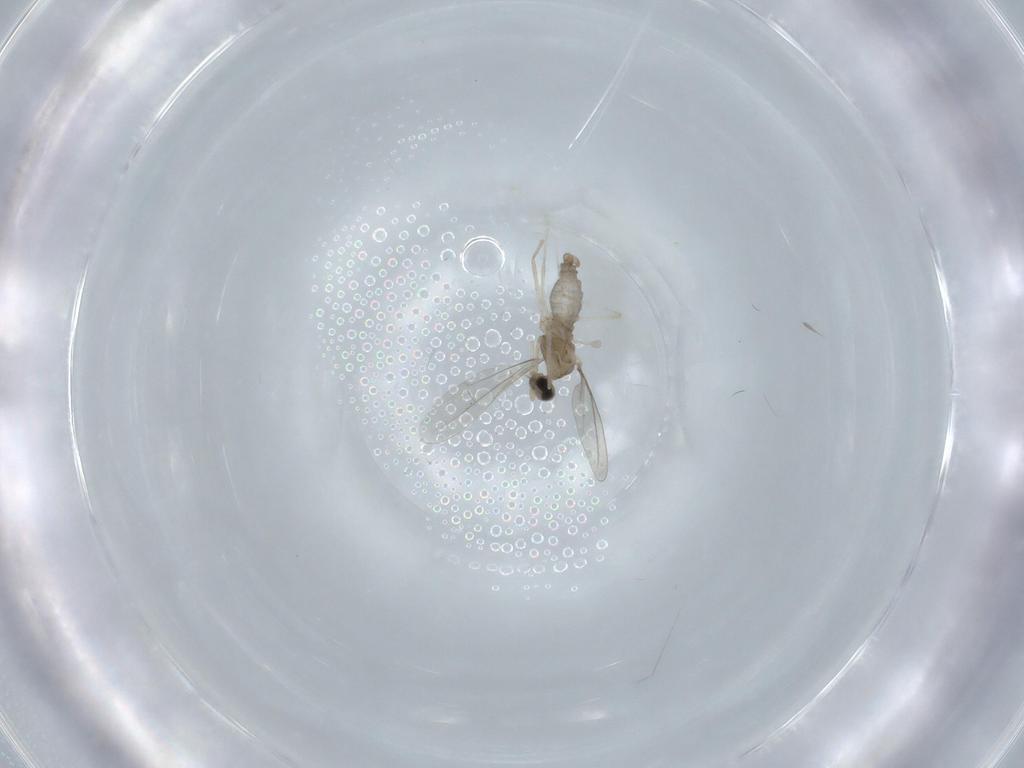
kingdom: Animalia
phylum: Arthropoda
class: Insecta
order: Diptera
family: Dolichopodidae
